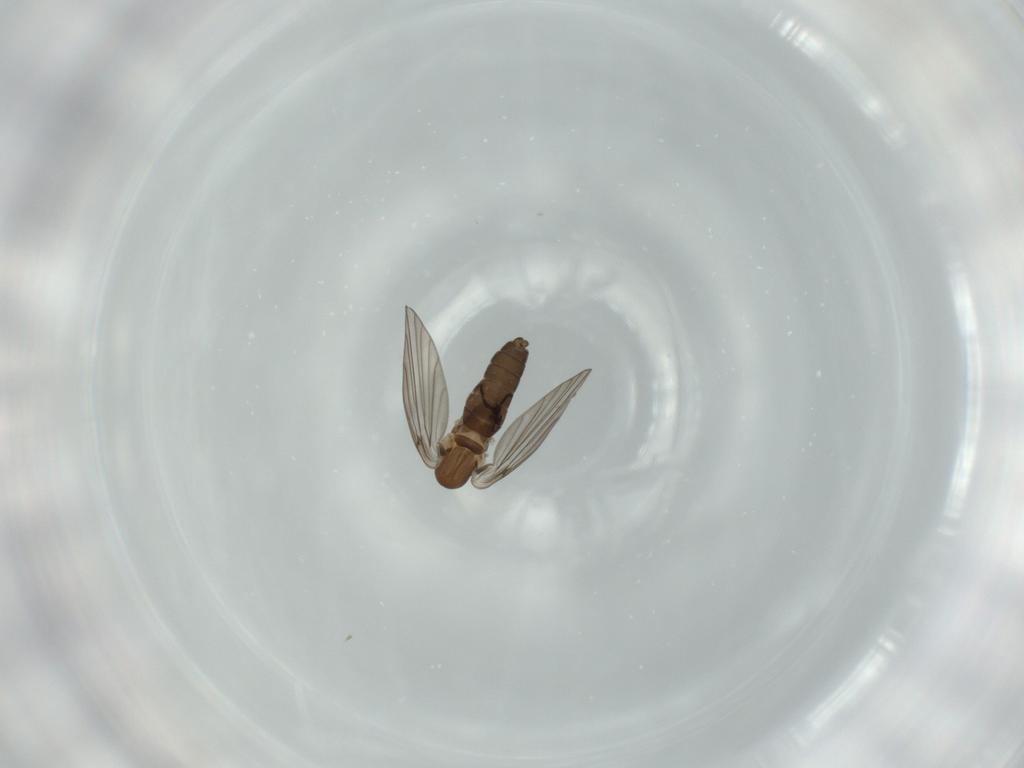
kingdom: Animalia
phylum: Arthropoda
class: Insecta
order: Diptera
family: Psychodidae
